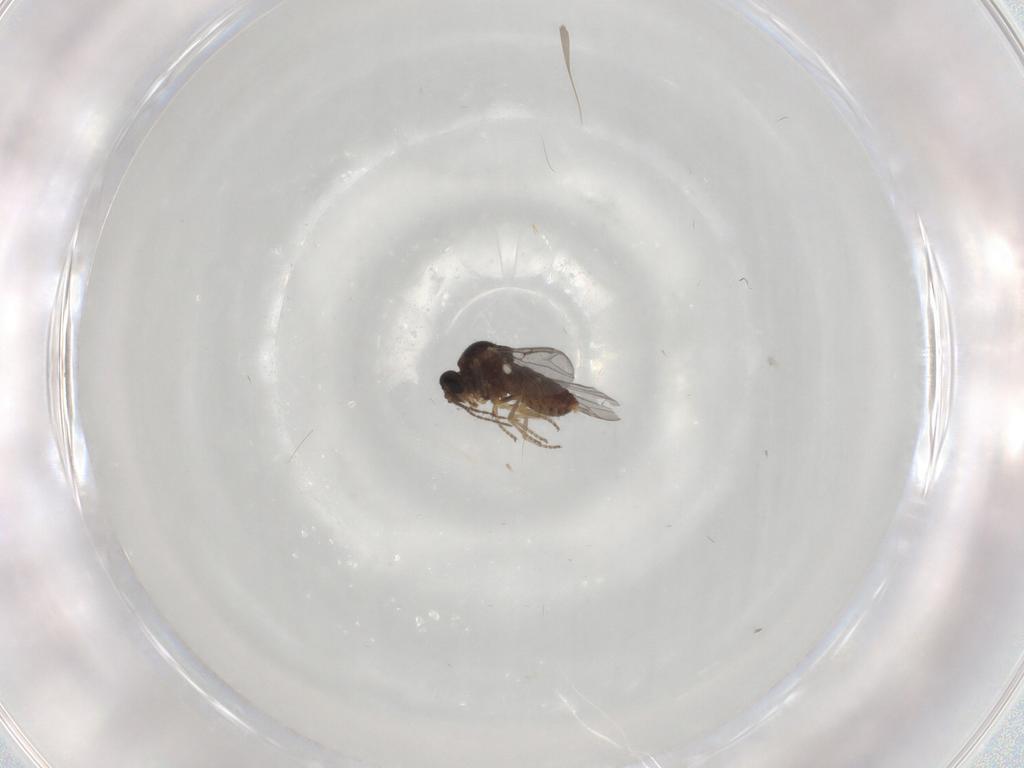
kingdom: Animalia
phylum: Arthropoda
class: Insecta
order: Diptera
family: Ceratopogonidae
